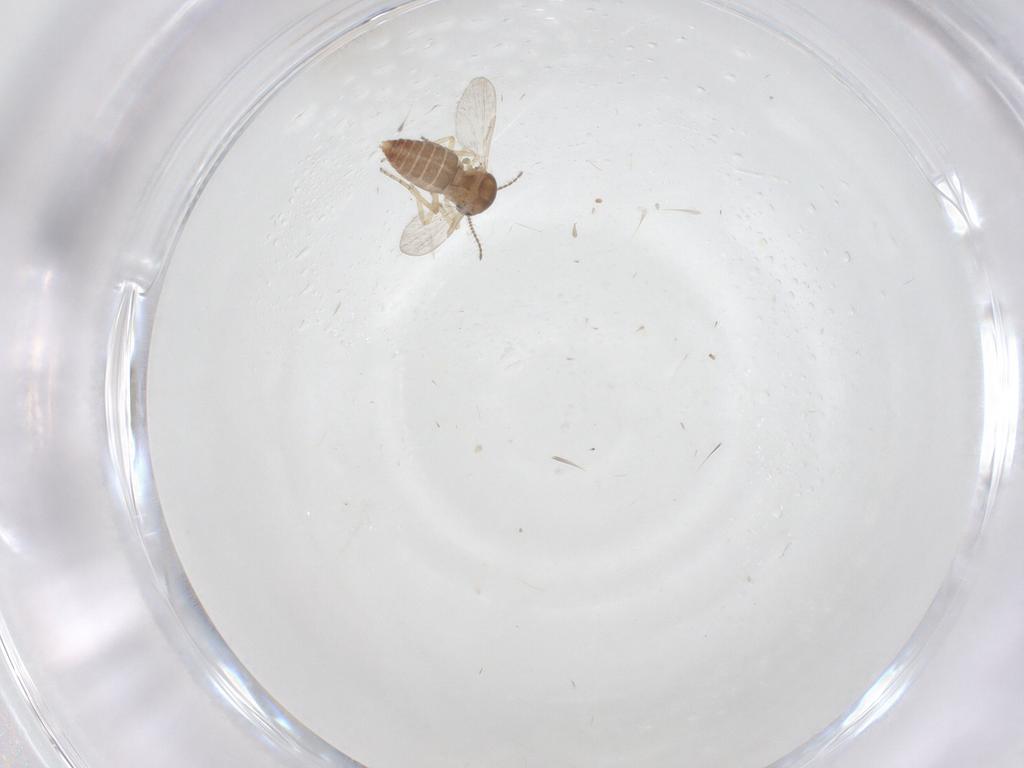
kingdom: Animalia
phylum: Arthropoda
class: Insecta
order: Diptera
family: Ceratopogonidae
